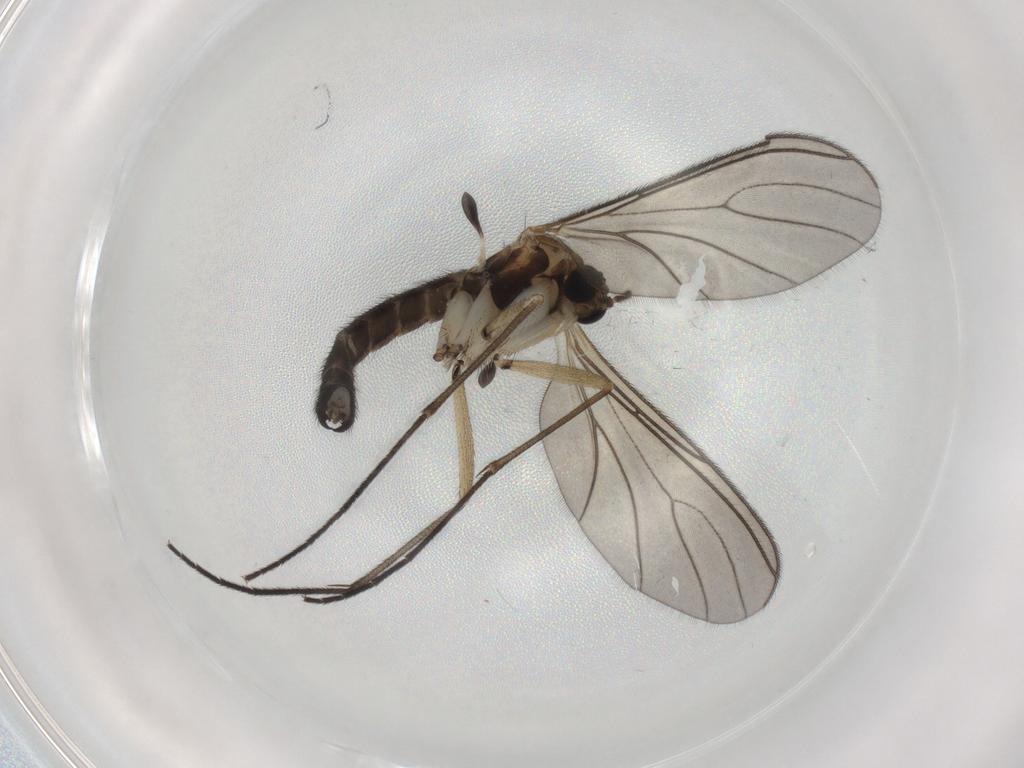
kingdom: Animalia
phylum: Arthropoda
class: Insecta
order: Diptera
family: Sciaridae
